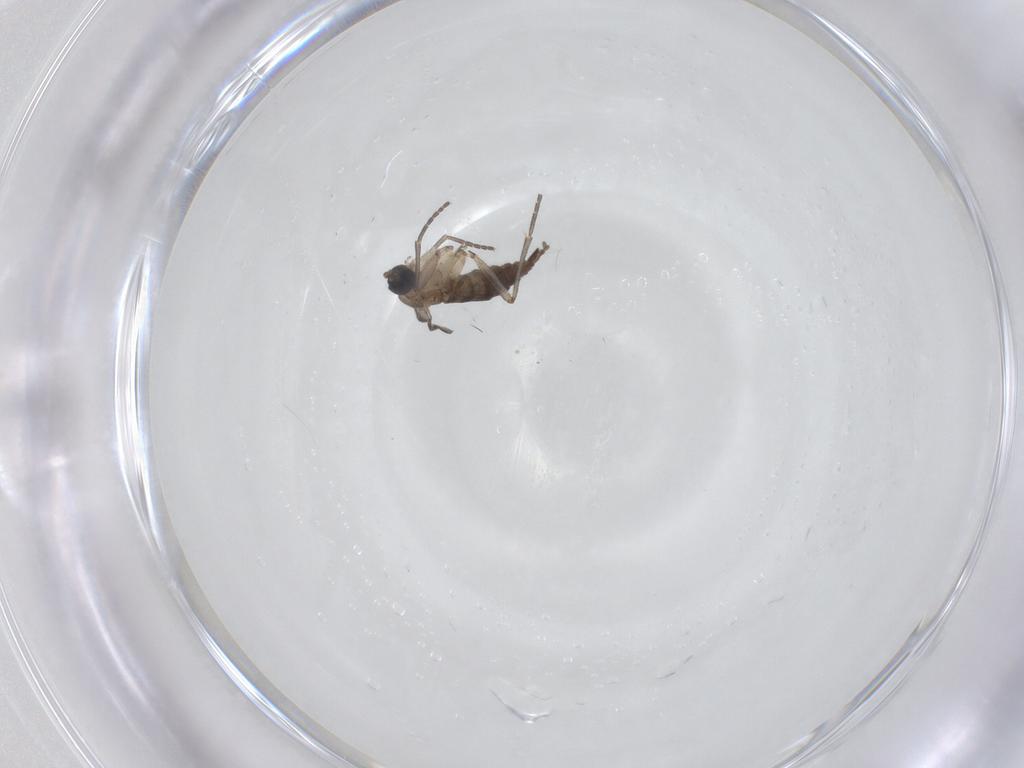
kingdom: Animalia
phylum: Arthropoda
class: Insecta
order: Diptera
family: Sciaridae
